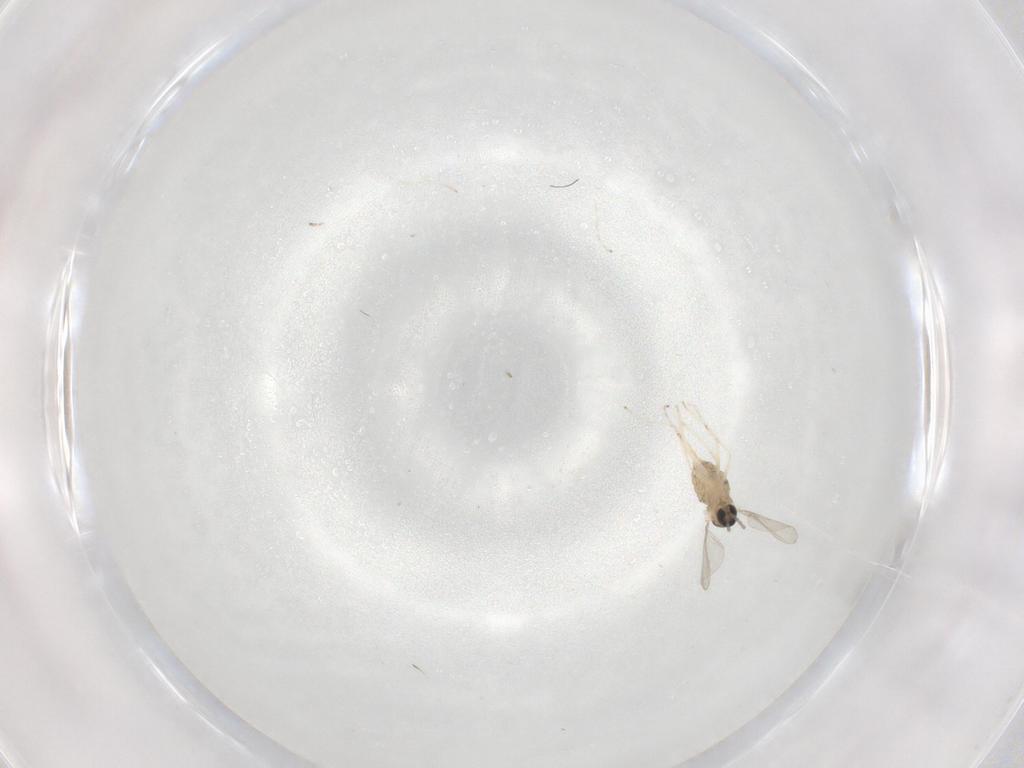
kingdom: Animalia
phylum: Arthropoda
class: Insecta
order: Diptera
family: Cecidomyiidae
